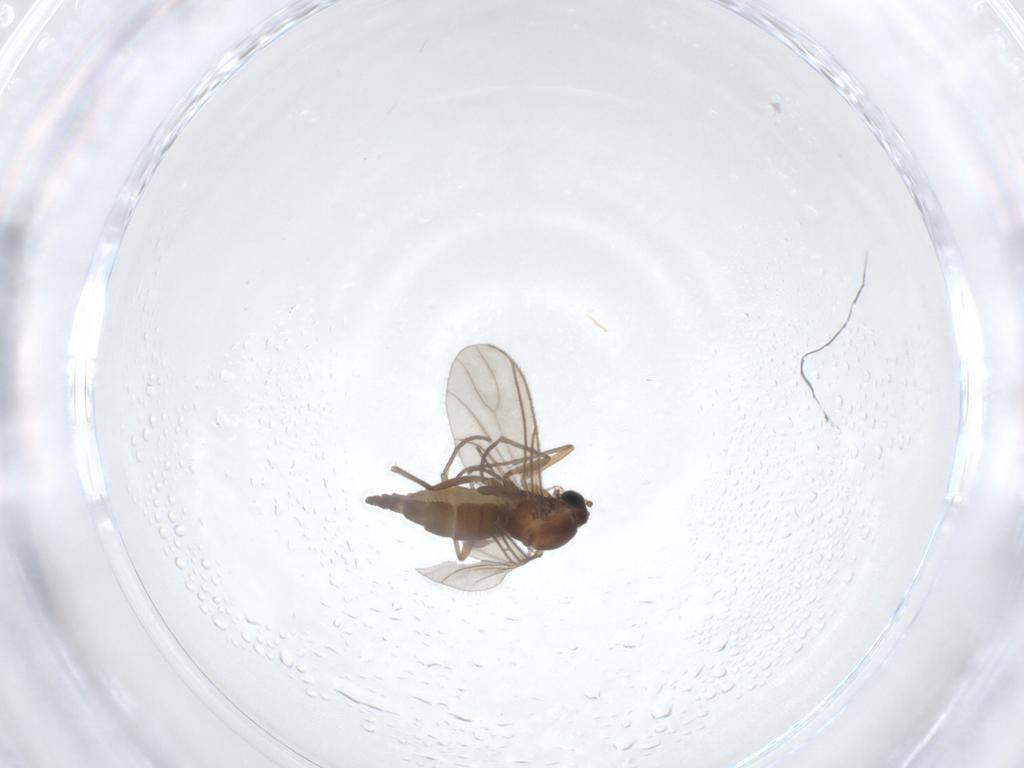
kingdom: Animalia
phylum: Arthropoda
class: Insecta
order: Diptera
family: Sciaridae
